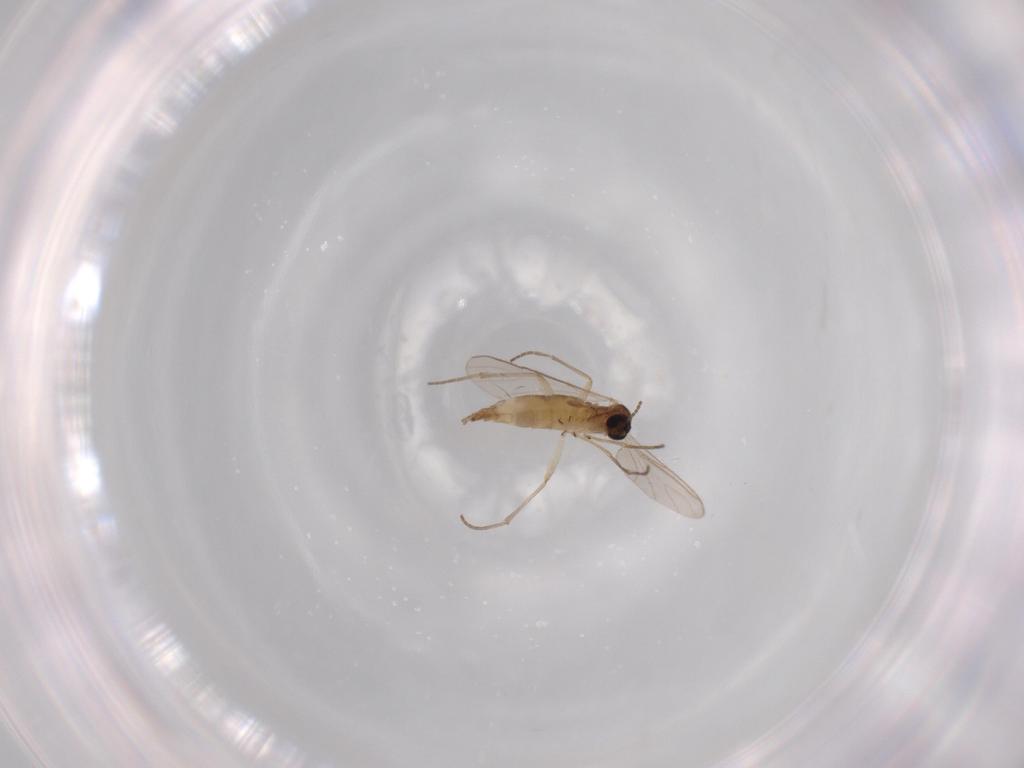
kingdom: Animalia
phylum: Arthropoda
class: Insecta
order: Diptera
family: Sciaridae
